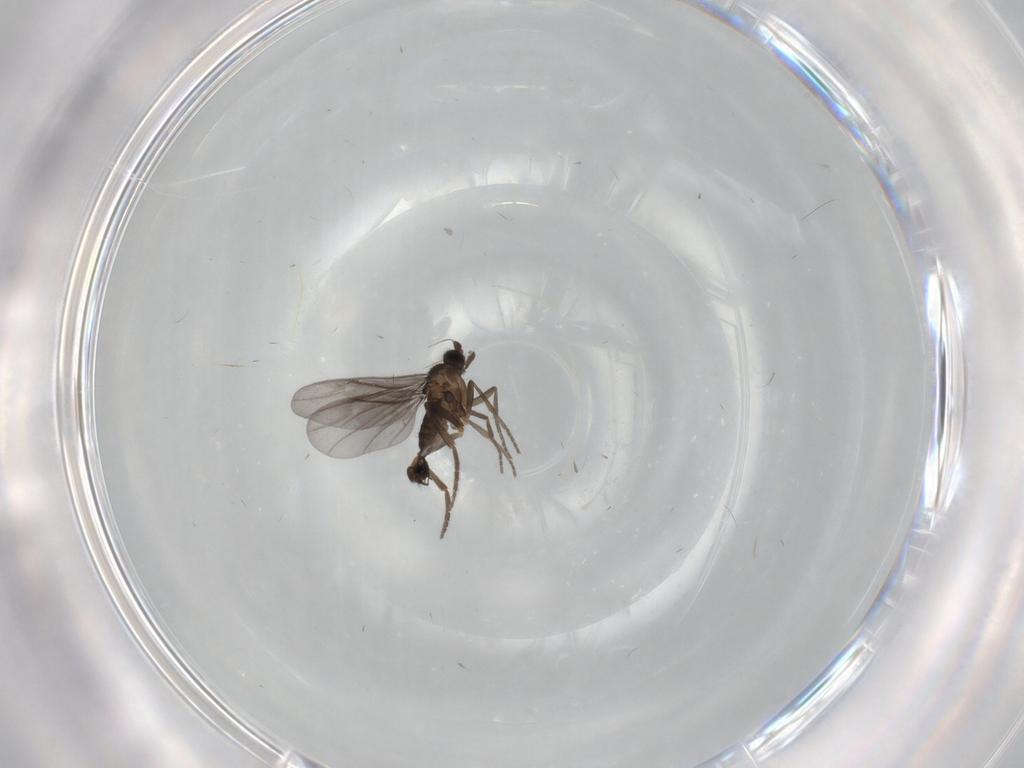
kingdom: Animalia
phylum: Arthropoda
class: Insecta
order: Diptera
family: Phoridae
